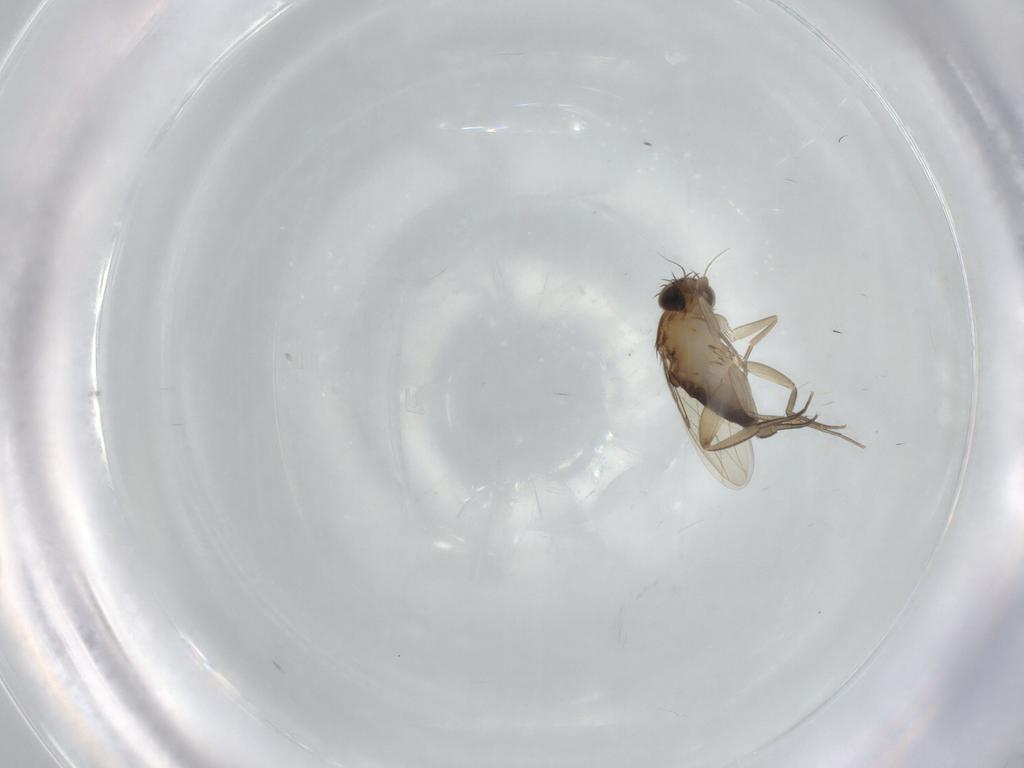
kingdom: Animalia
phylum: Arthropoda
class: Insecta
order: Diptera
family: Phoridae
